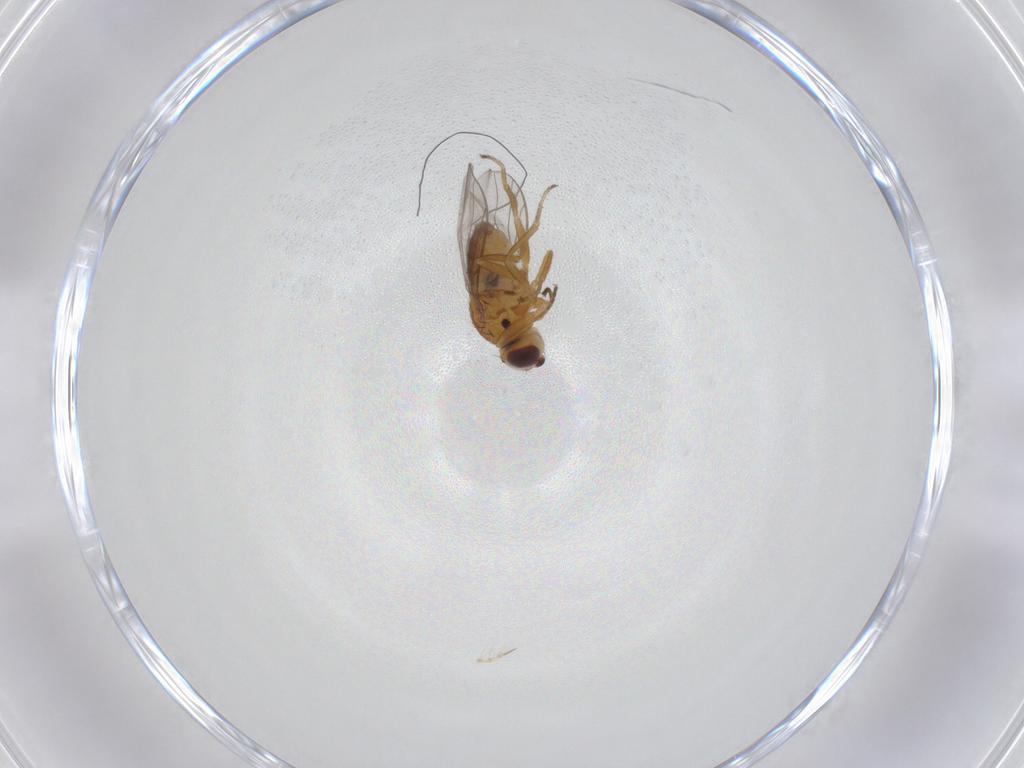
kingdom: Animalia
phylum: Arthropoda
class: Insecta
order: Diptera
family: Chloropidae
